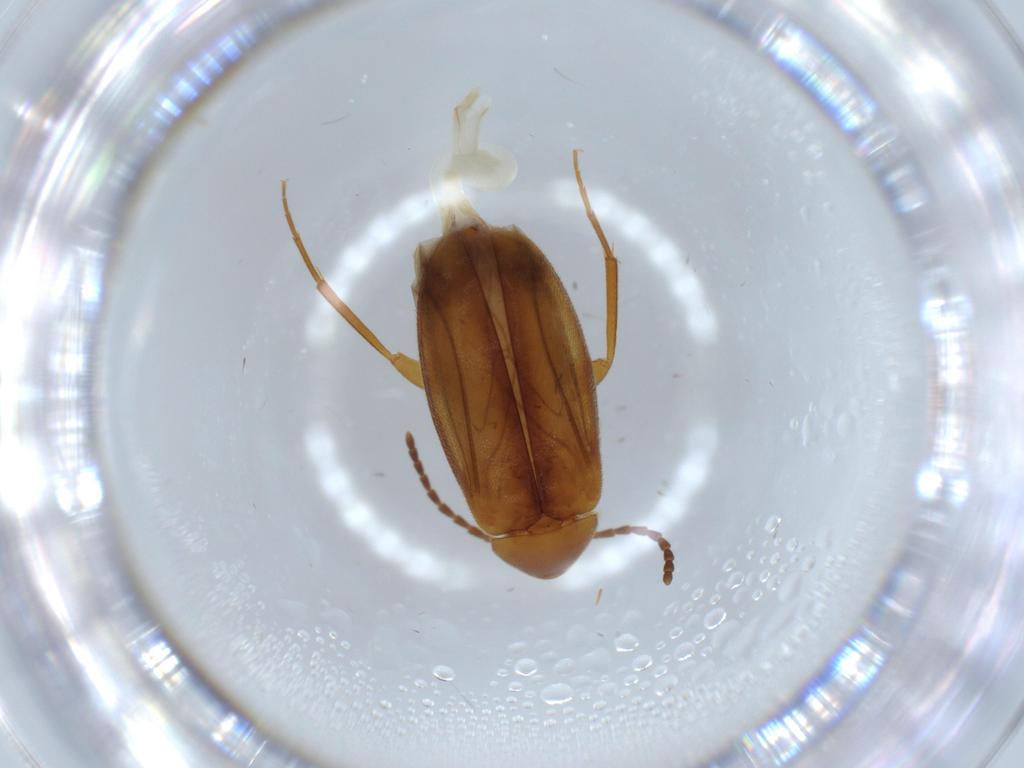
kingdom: Animalia
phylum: Arthropoda
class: Insecta
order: Coleoptera
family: Scraptiidae
